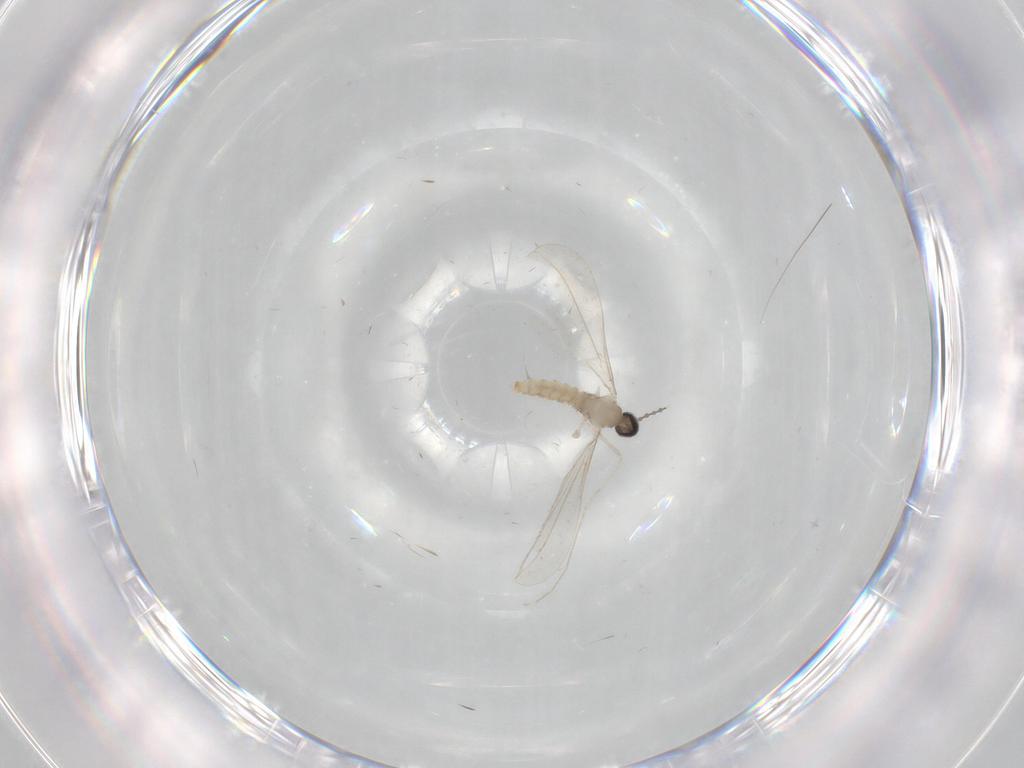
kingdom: Animalia
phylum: Arthropoda
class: Insecta
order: Diptera
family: Cecidomyiidae
